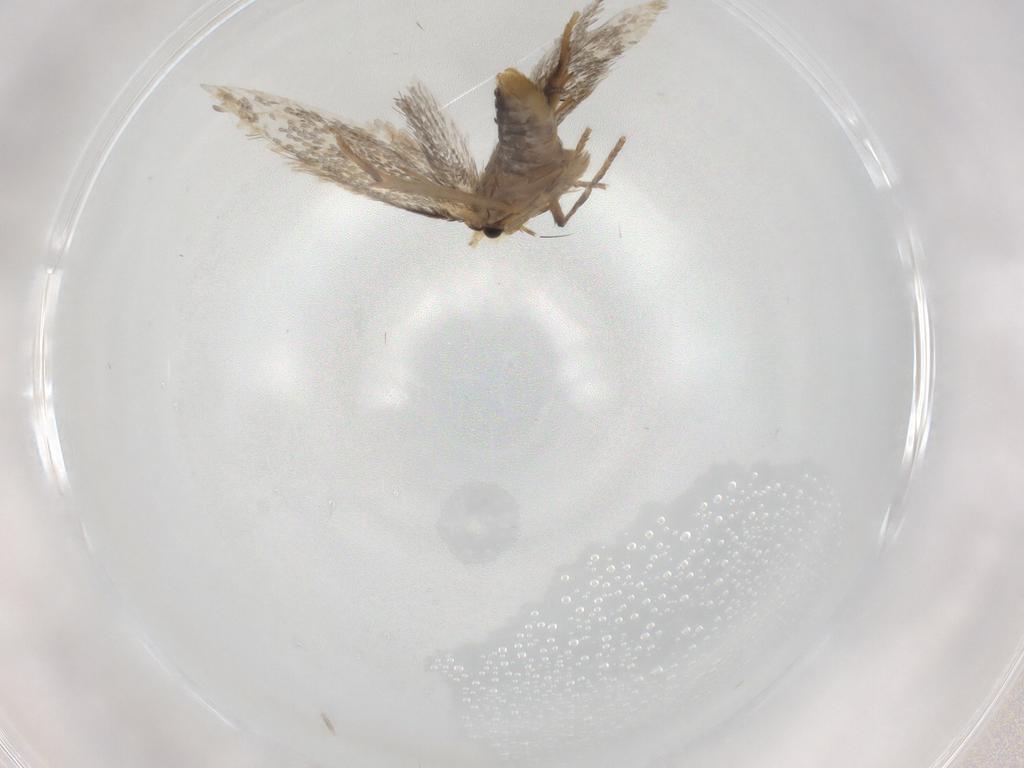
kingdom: Animalia
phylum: Arthropoda
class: Insecta
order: Lepidoptera
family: Nepticulidae
